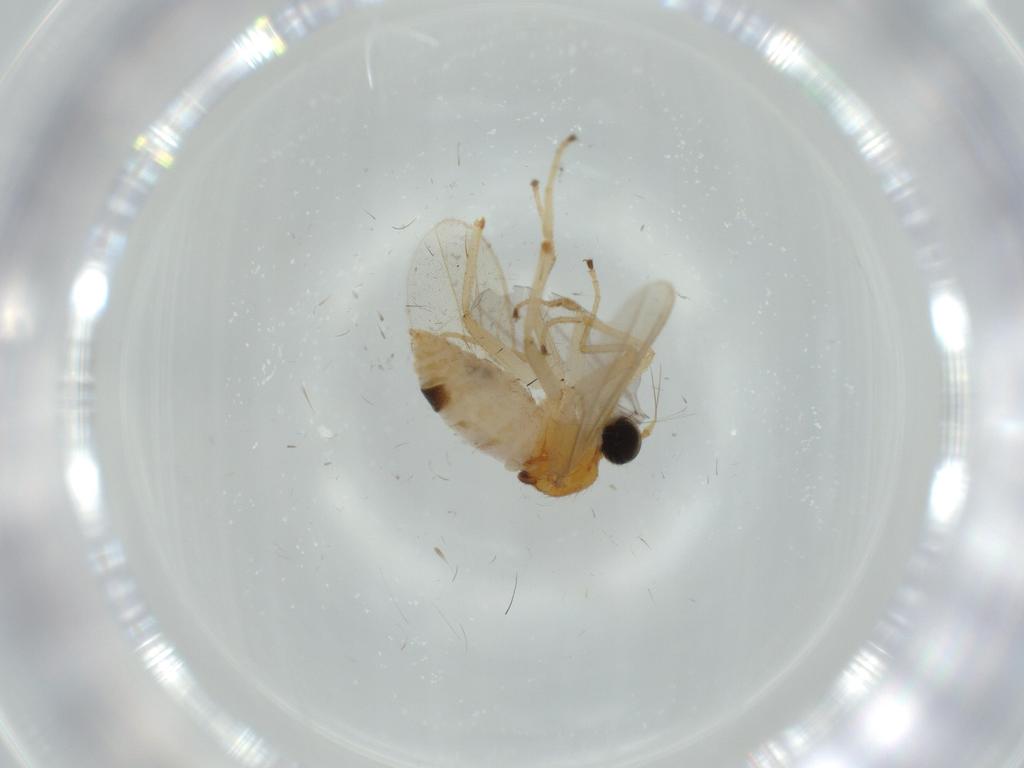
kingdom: Animalia
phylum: Arthropoda
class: Insecta
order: Diptera
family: Hybotidae
